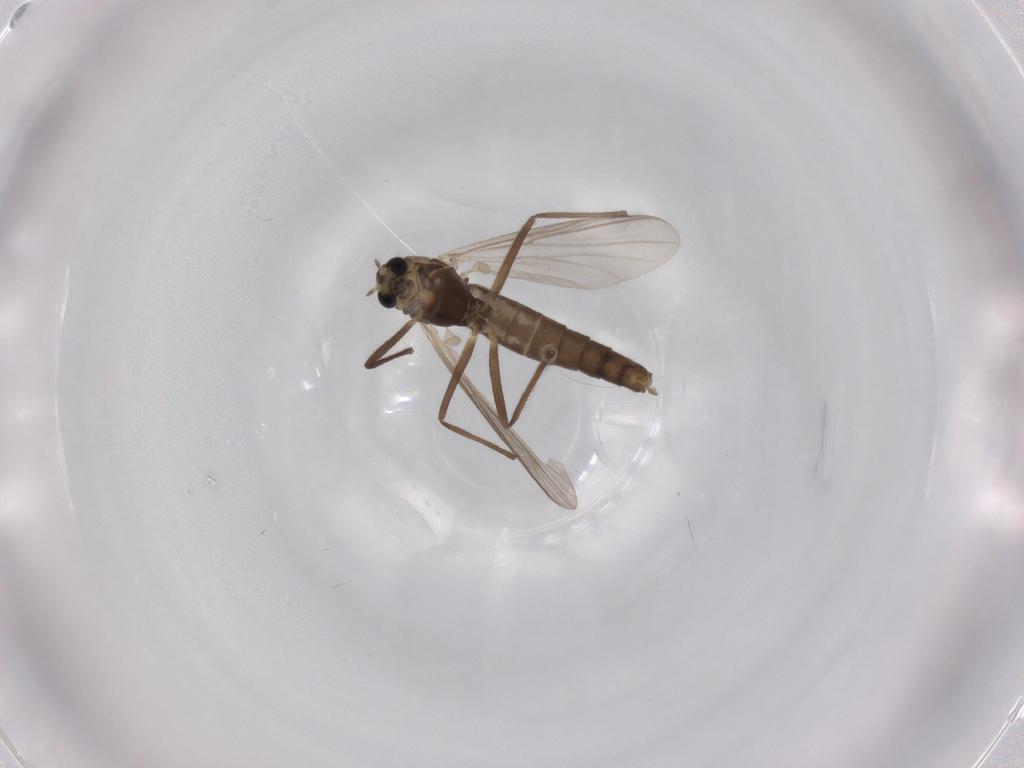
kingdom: Animalia
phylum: Arthropoda
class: Insecta
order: Diptera
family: Chironomidae
